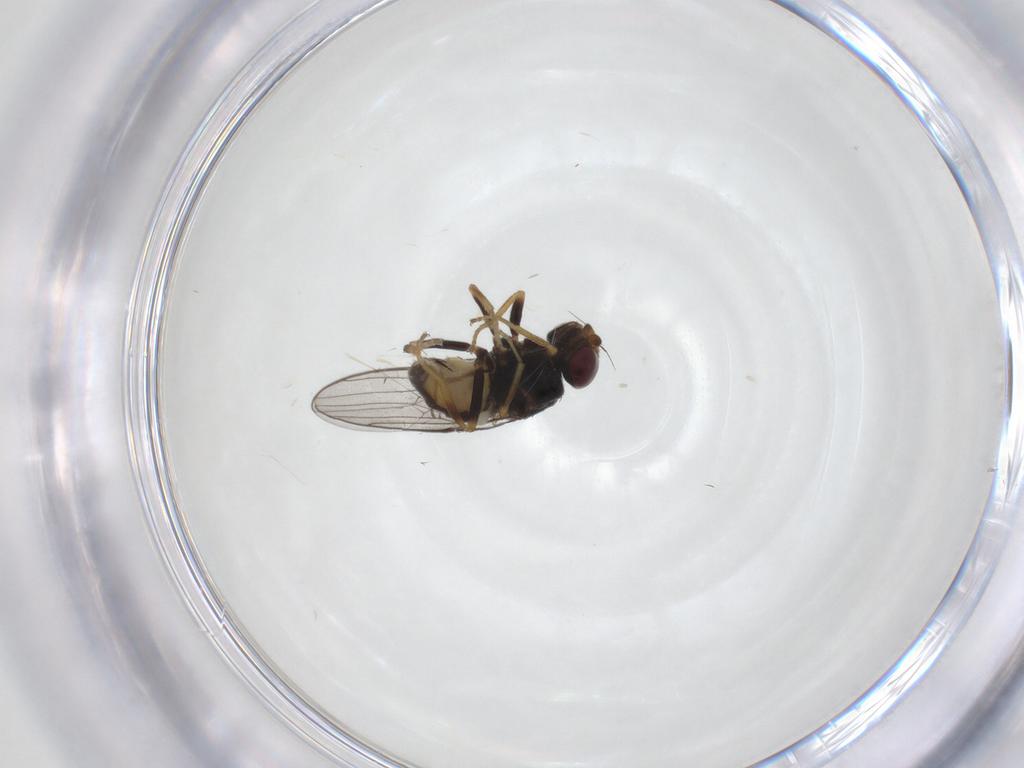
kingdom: Animalia
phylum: Arthropoda
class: Insecta
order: Diptera
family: Chloropidae
